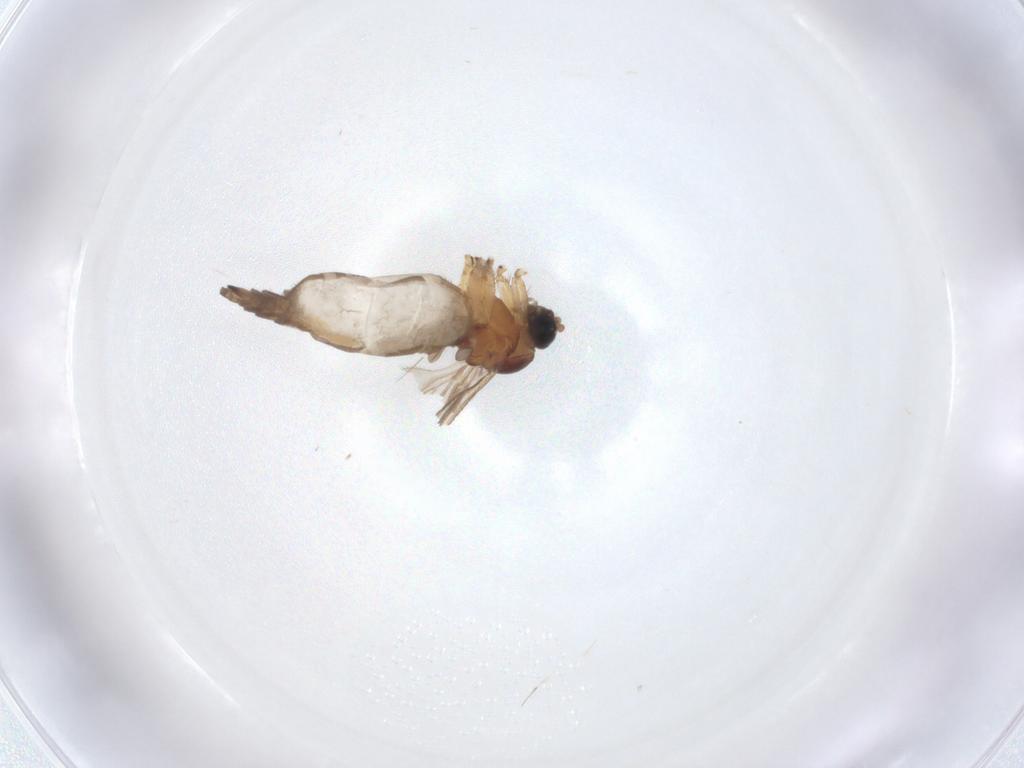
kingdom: Animalia
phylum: Arthropoda
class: Insecta
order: Diptera
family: Sciaridae
